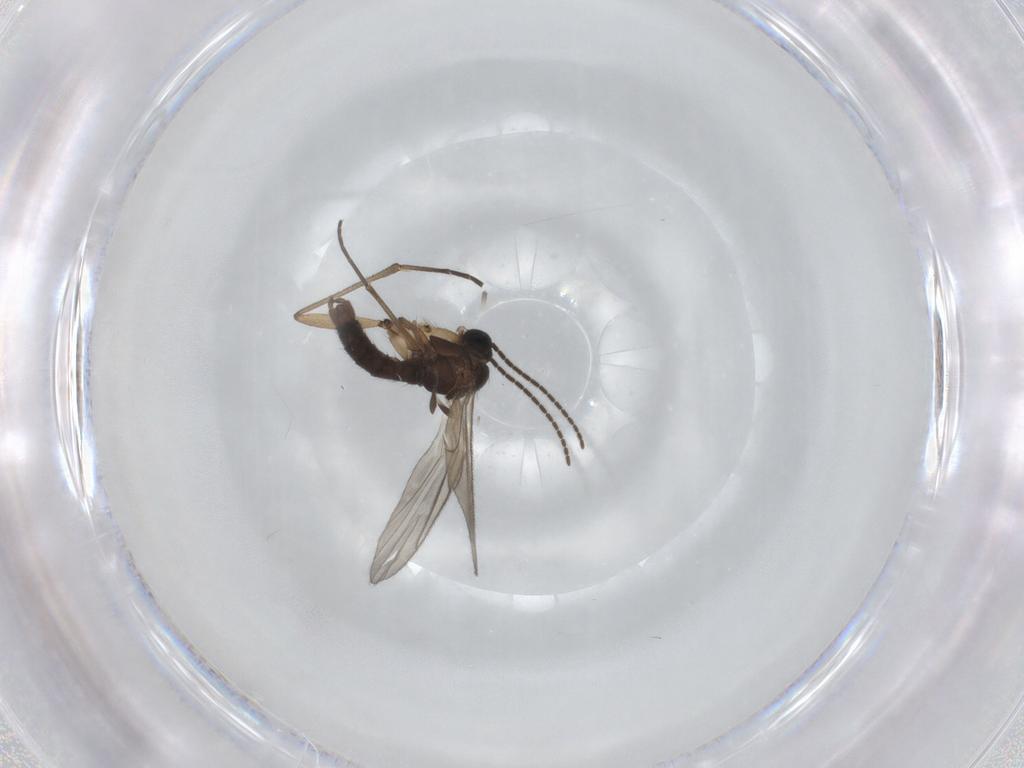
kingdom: Animalia
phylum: Arthropoda
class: Insecta
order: Diptera
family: Sciaridae
